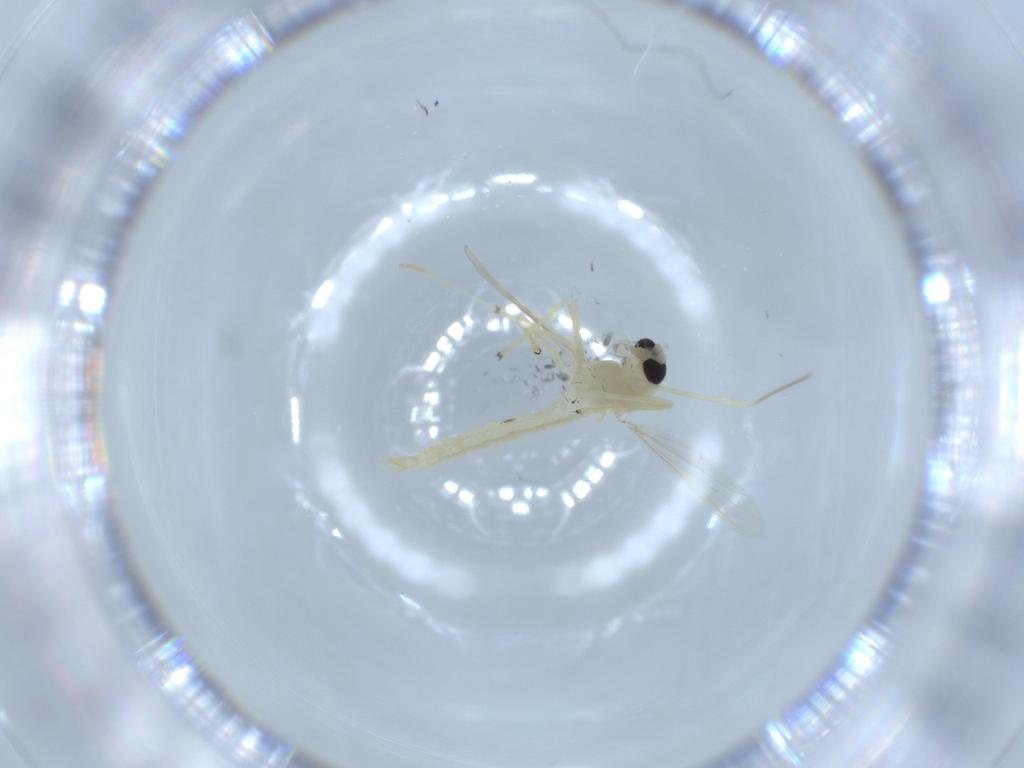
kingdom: Animalia
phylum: Arthropoda
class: Insecta
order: Diptera
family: Chironomidae
